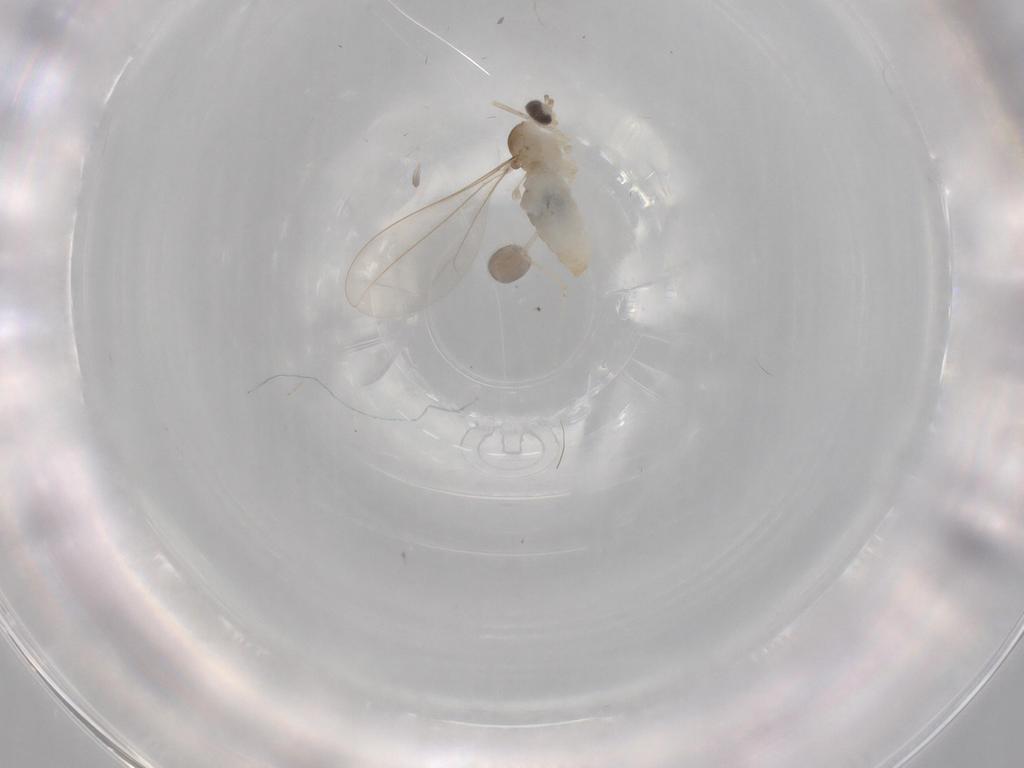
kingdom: Animalia
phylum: Arthropoda
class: Insecta
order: Diptera
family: Cecidomyiidae
